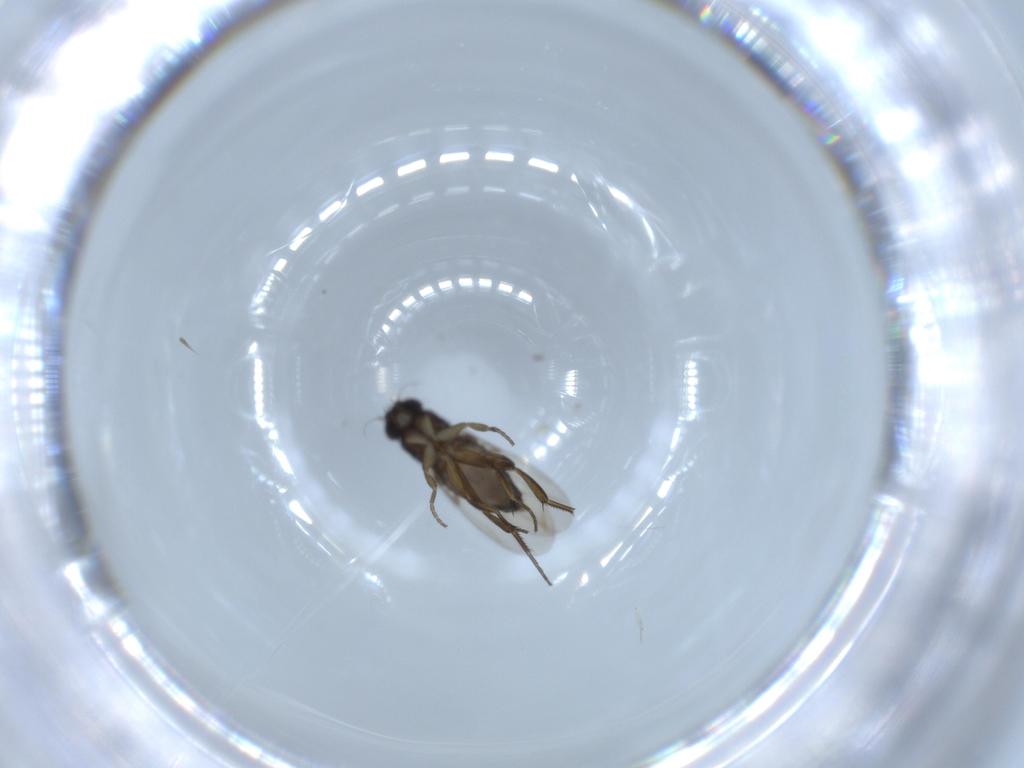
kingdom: Animalia
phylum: Arthropoda
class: Insecta
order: Diptera
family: Phoridae
